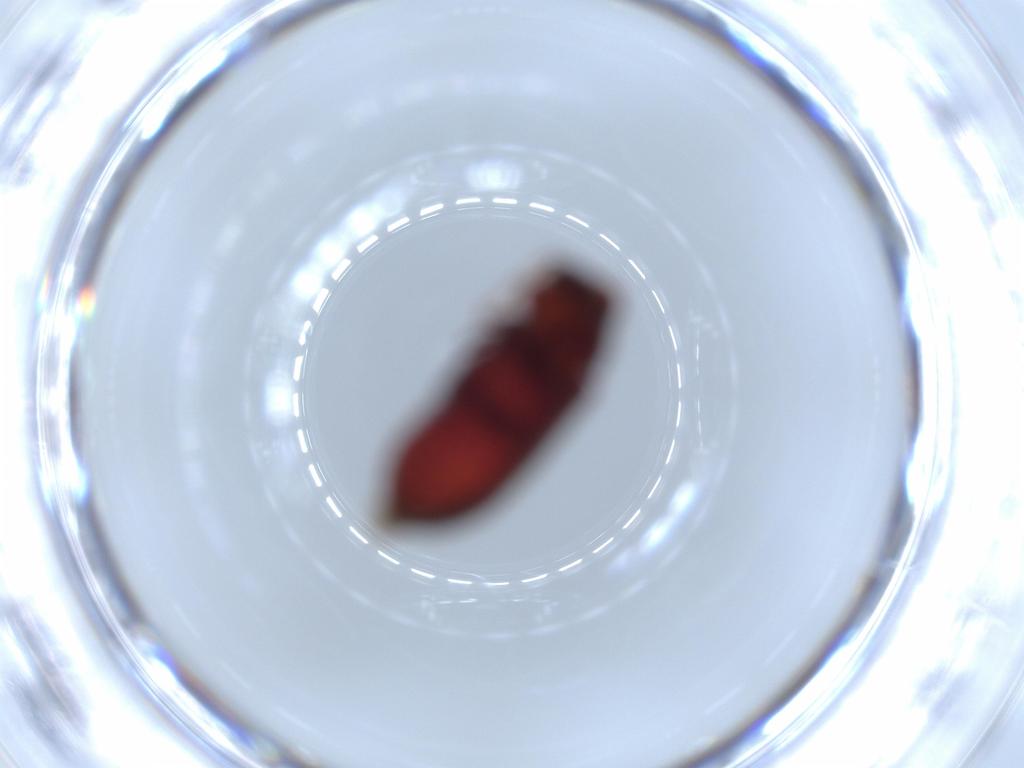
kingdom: Animalia
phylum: Arthropoda
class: Insecta
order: Coleoptera
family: Ptinidae
